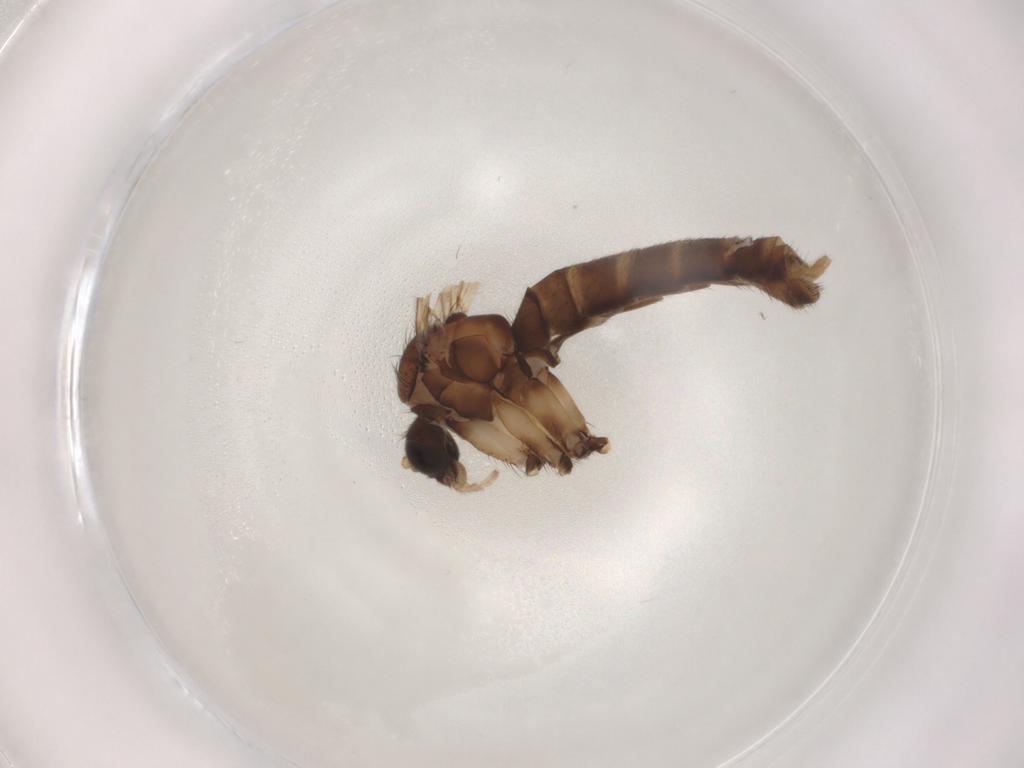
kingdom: Animalia
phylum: Arthropoda
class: Insecta
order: Diptera
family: Mycetophilidae
